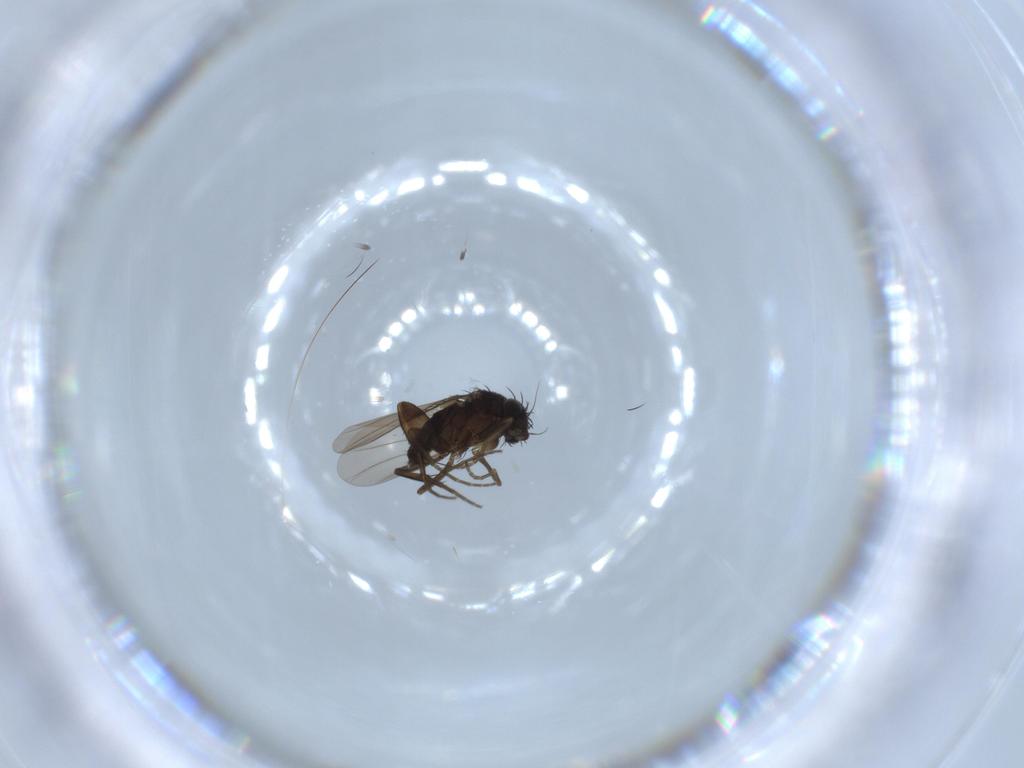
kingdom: Animalia
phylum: Arthropoda
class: Insecta
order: Diptera
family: Phoridae
